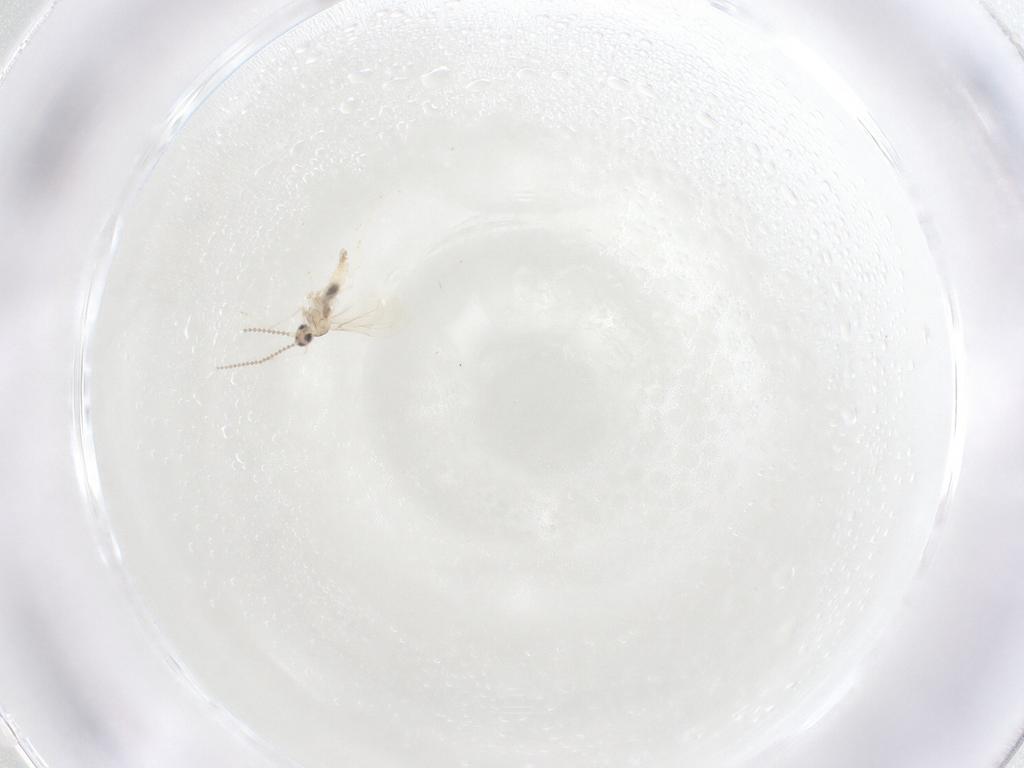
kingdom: Animalia
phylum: Arthropoda
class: Insecta
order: Diptera
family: Cecidomyiidae
